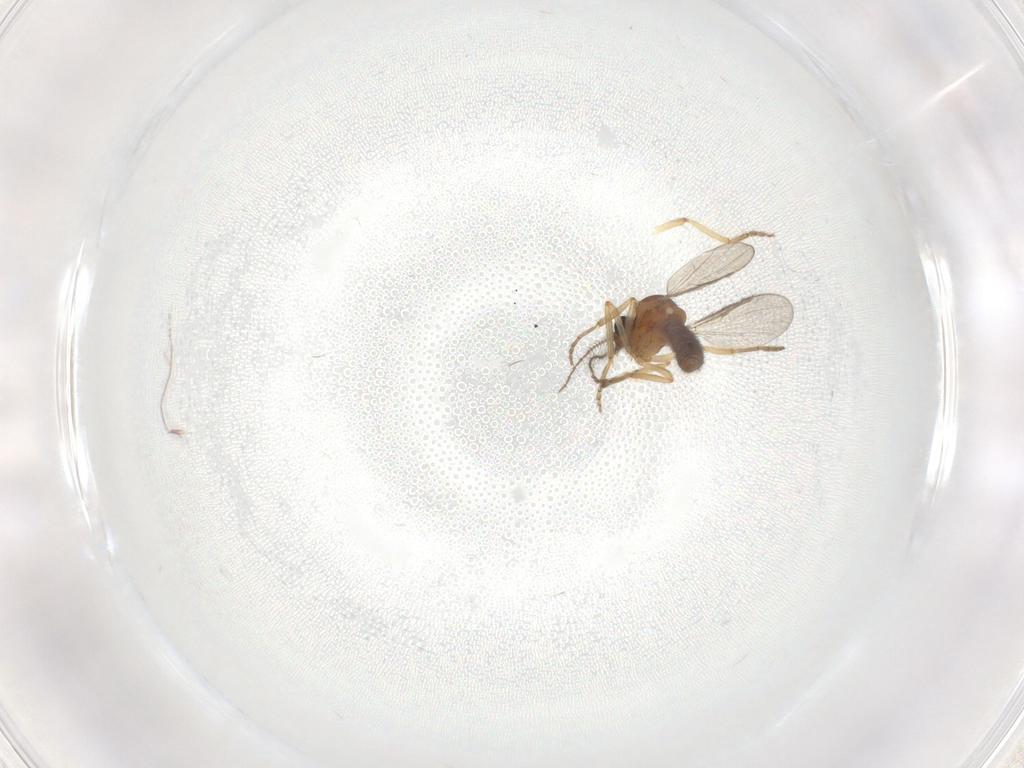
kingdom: Animalia
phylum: Arthropoda
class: Insecta
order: Diptera
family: Ceratopogonidae
